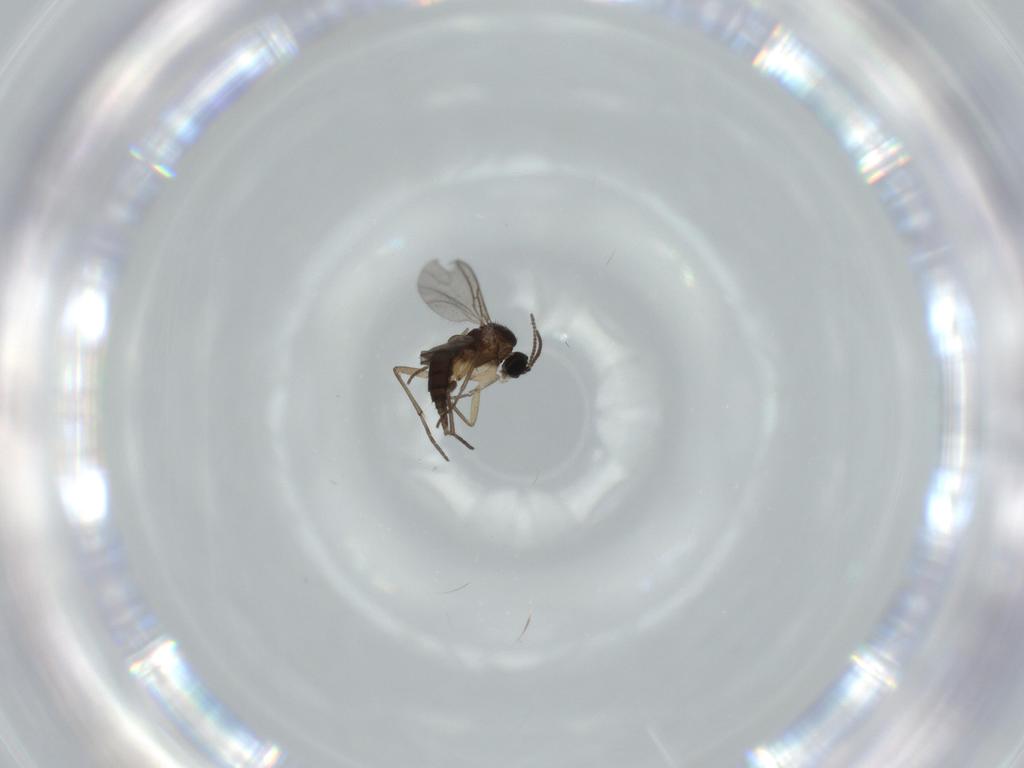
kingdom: Animalia
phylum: Arthropoda
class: Insecta
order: Diptera
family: Sciaridae
